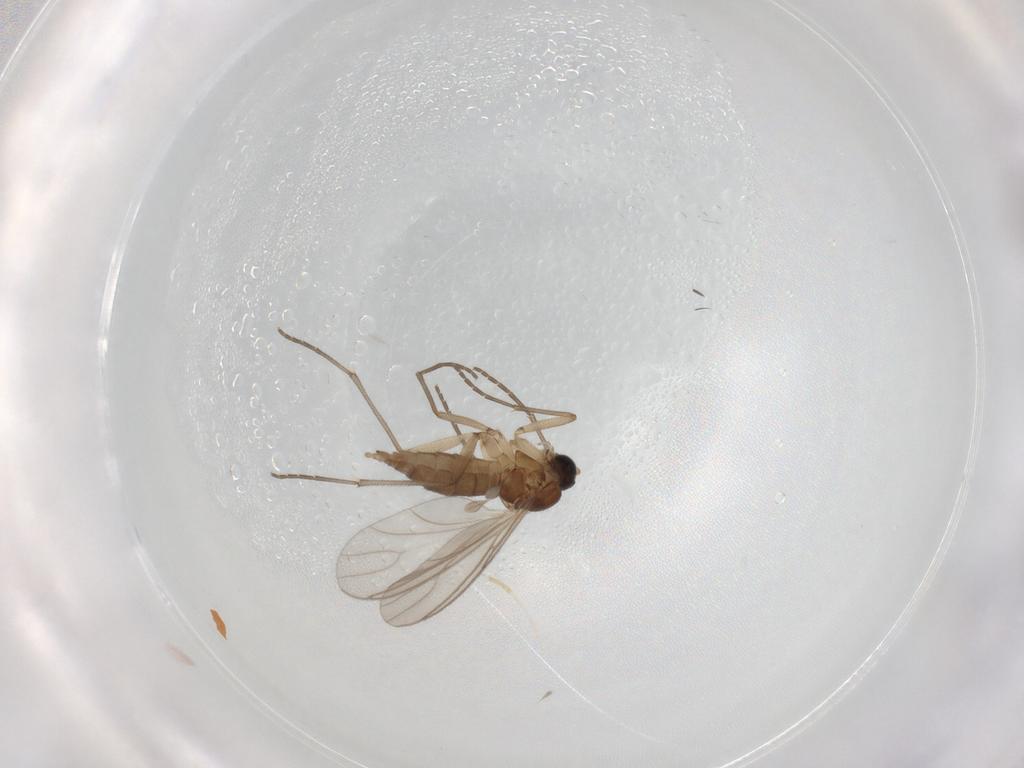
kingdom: Animalia
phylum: Arthropoda
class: Insecta
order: Diptera
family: Sciaridae
